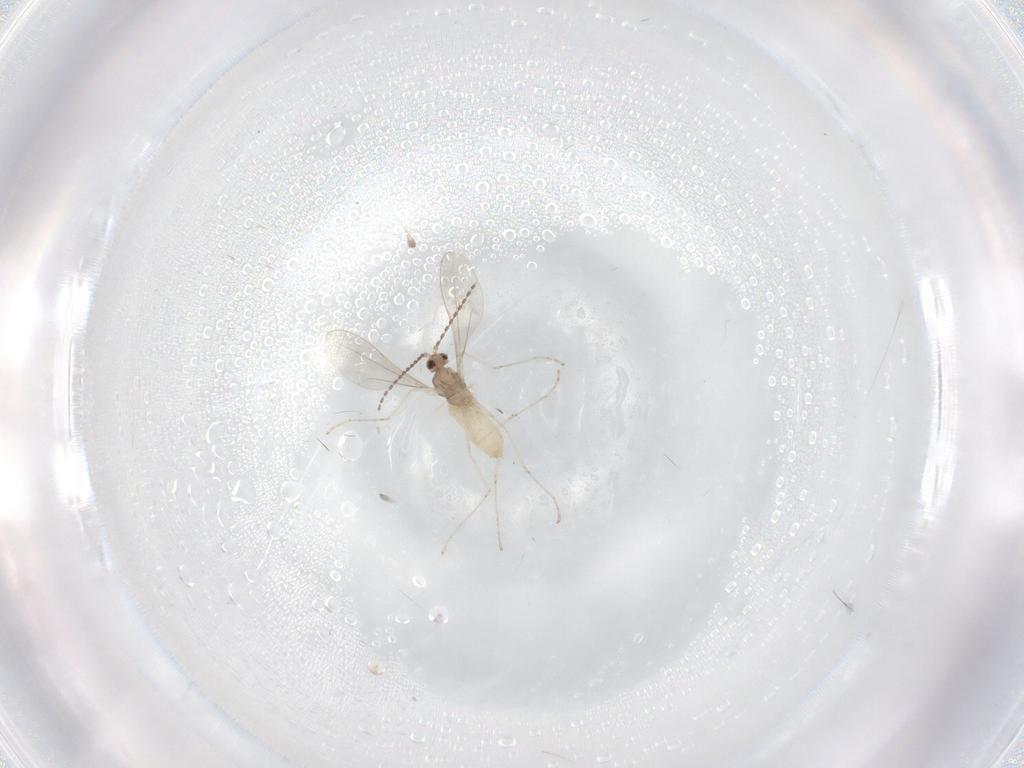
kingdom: Animalia
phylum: Arthropoda
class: Insecta
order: Diptera
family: Cecidomyiidae
